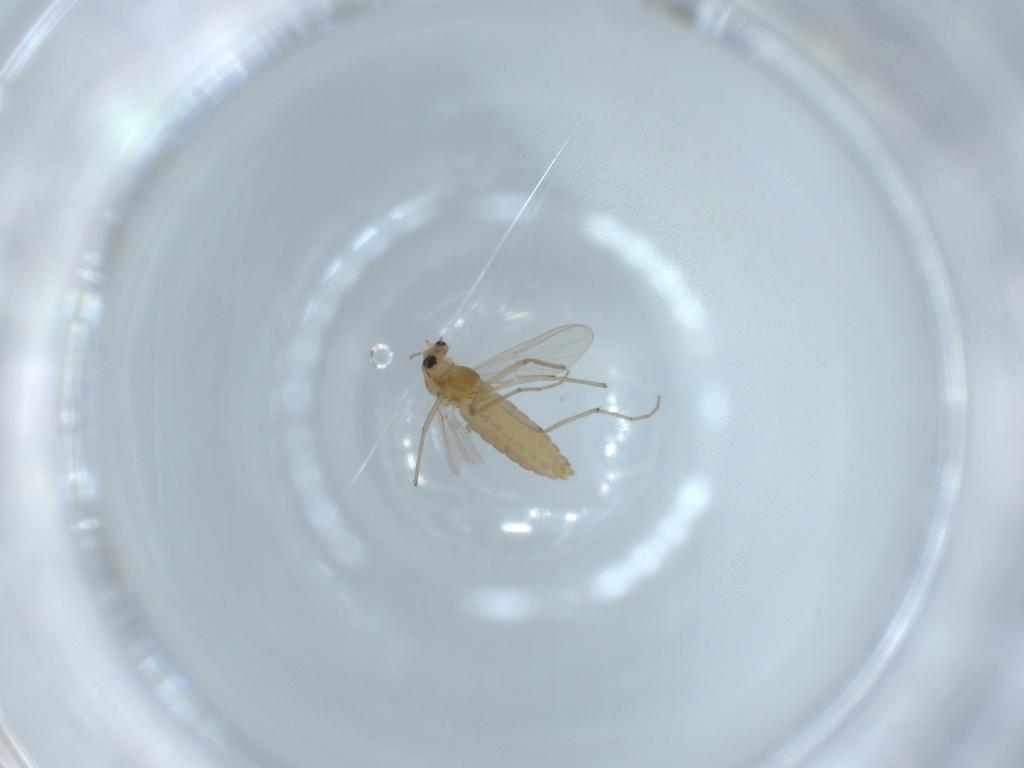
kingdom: Animalia
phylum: Arthropoda
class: Insecta
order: Diptera
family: Chironomidae
